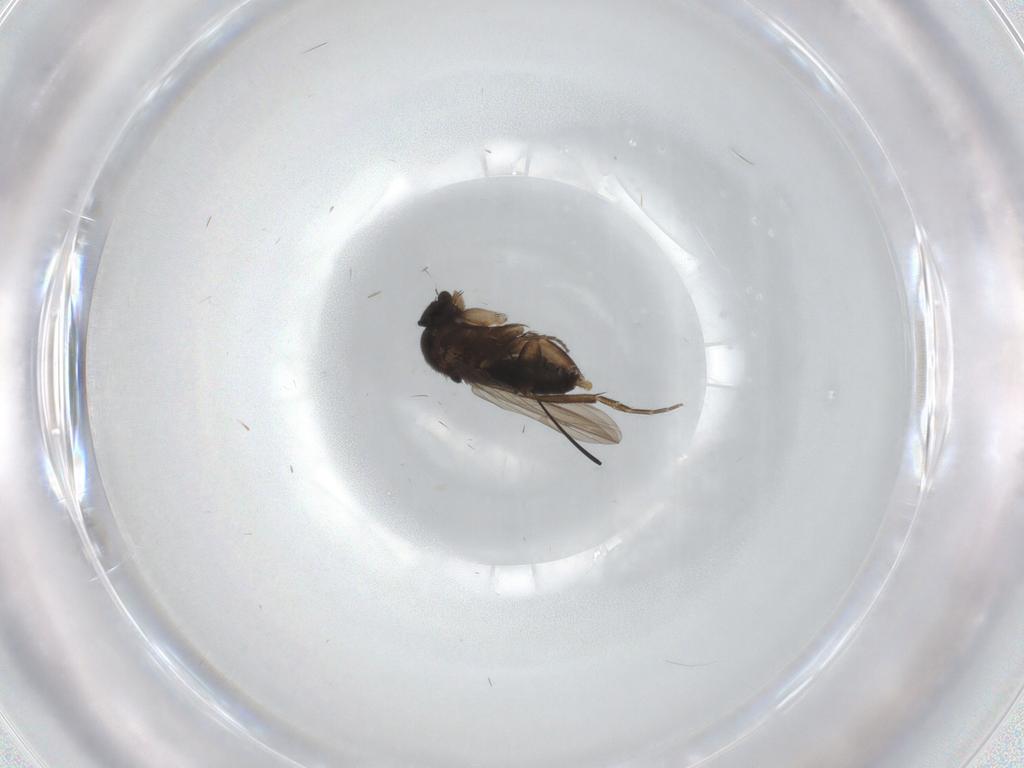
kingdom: Animalia
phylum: Arthropoda
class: Insecta
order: Diptera
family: Phoridae
